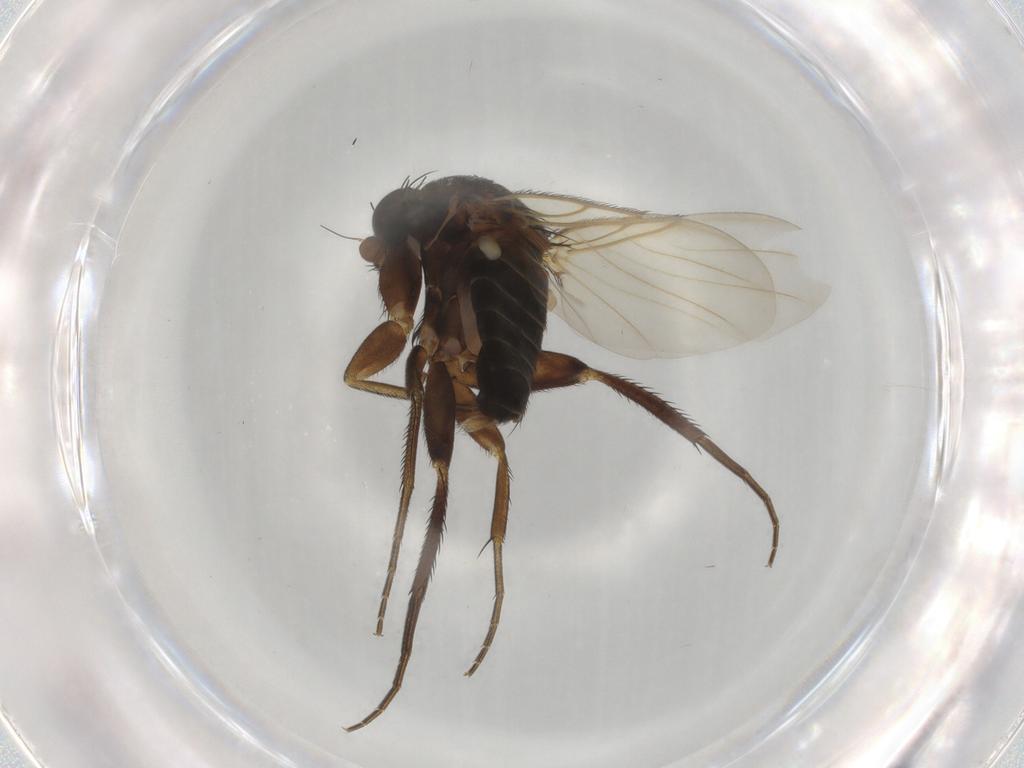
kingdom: Animalia
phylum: Arthropoda
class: Insecta
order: Diptera
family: Phoridae
